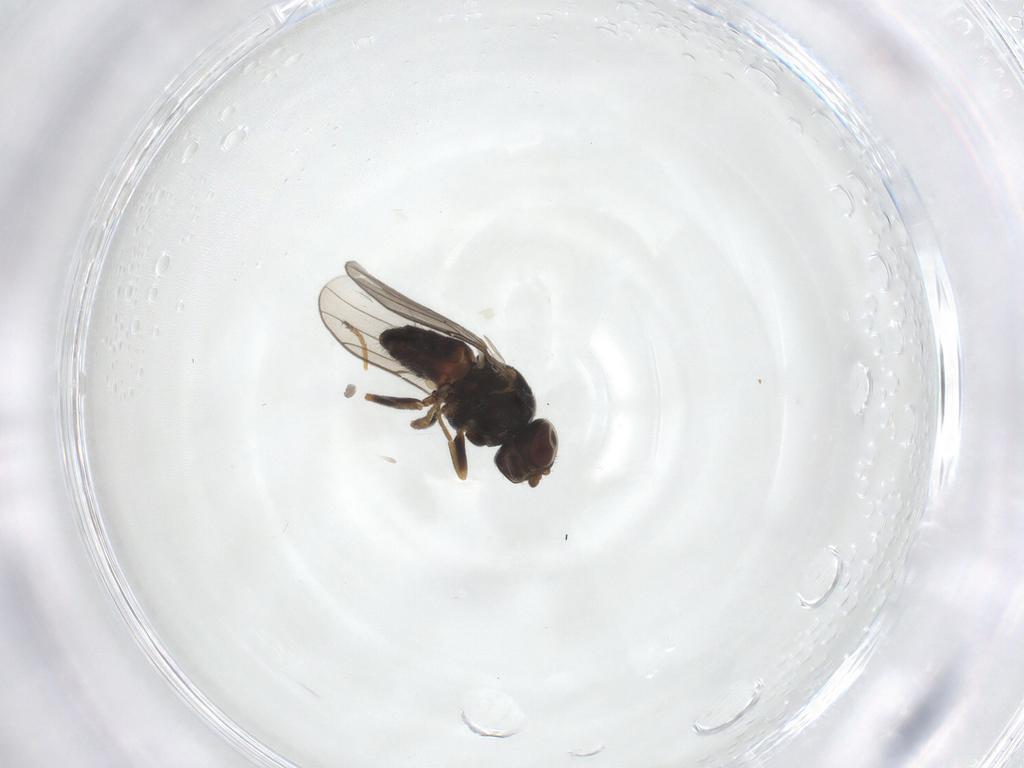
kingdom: Animalia
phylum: Arthropoda
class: Insecta
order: Diptera
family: Chloropidae
